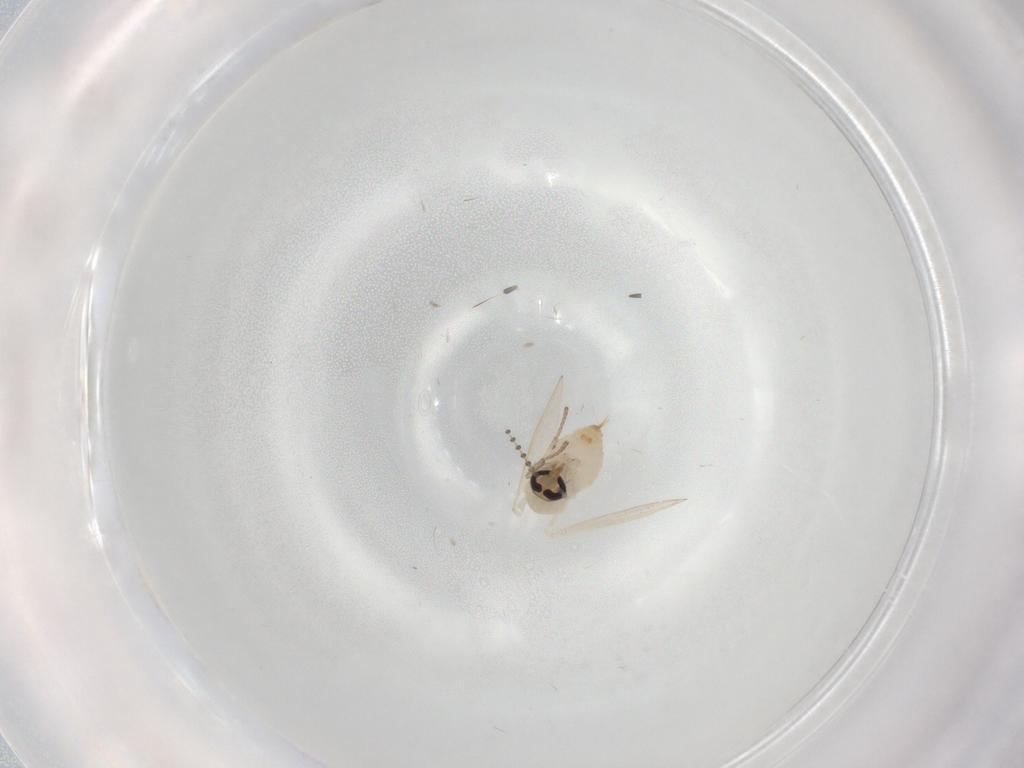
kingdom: Animalia
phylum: Arthropoda
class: Insecta
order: Diptera
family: Psychodidae
